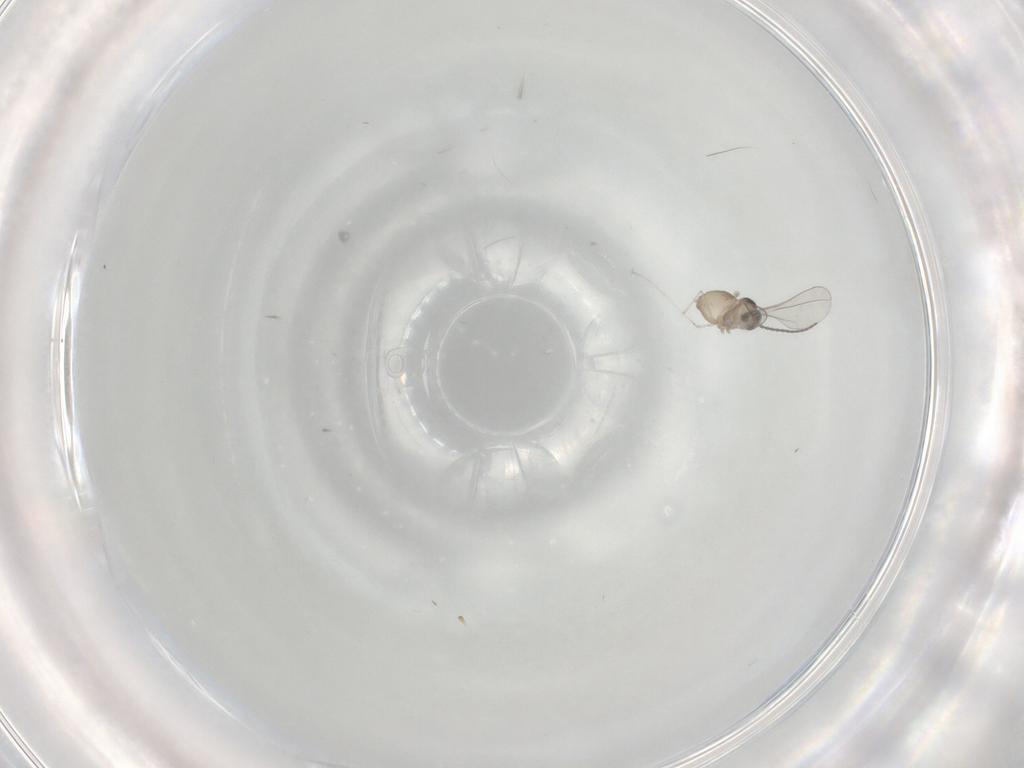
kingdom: Animalia
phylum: Arthropoda
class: Insecta
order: Diptera
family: Cecidomyiidae
